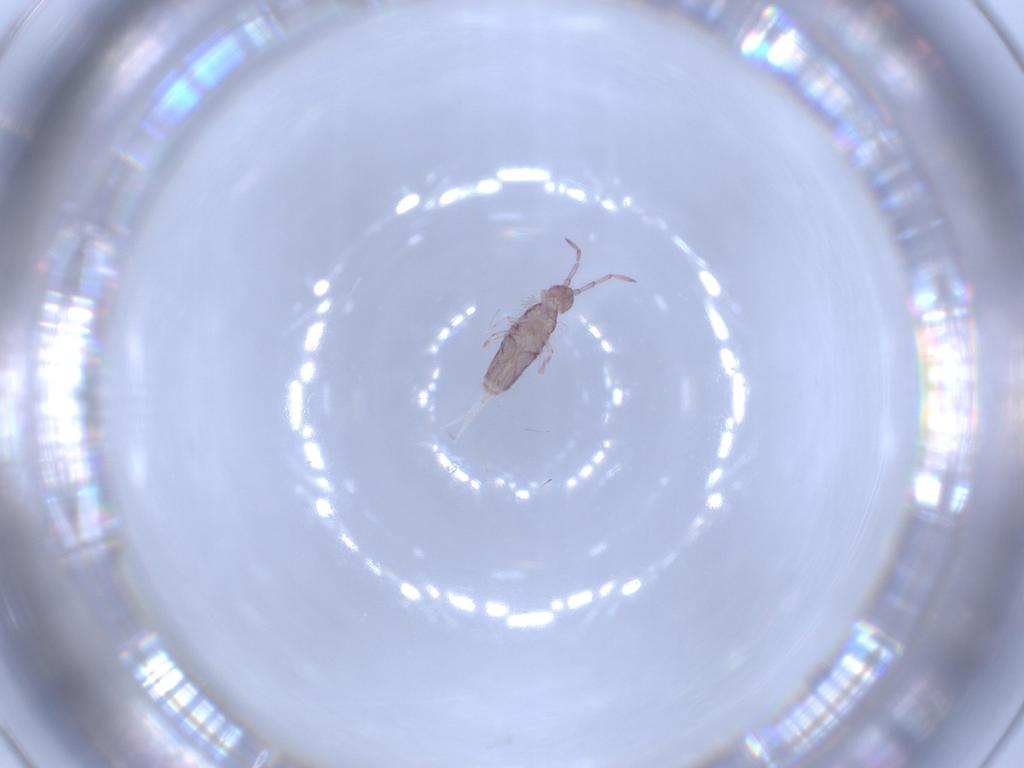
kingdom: Animalia
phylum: Arthropoda
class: Collembola
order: Entomobryomorpha
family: Entomobryidae
